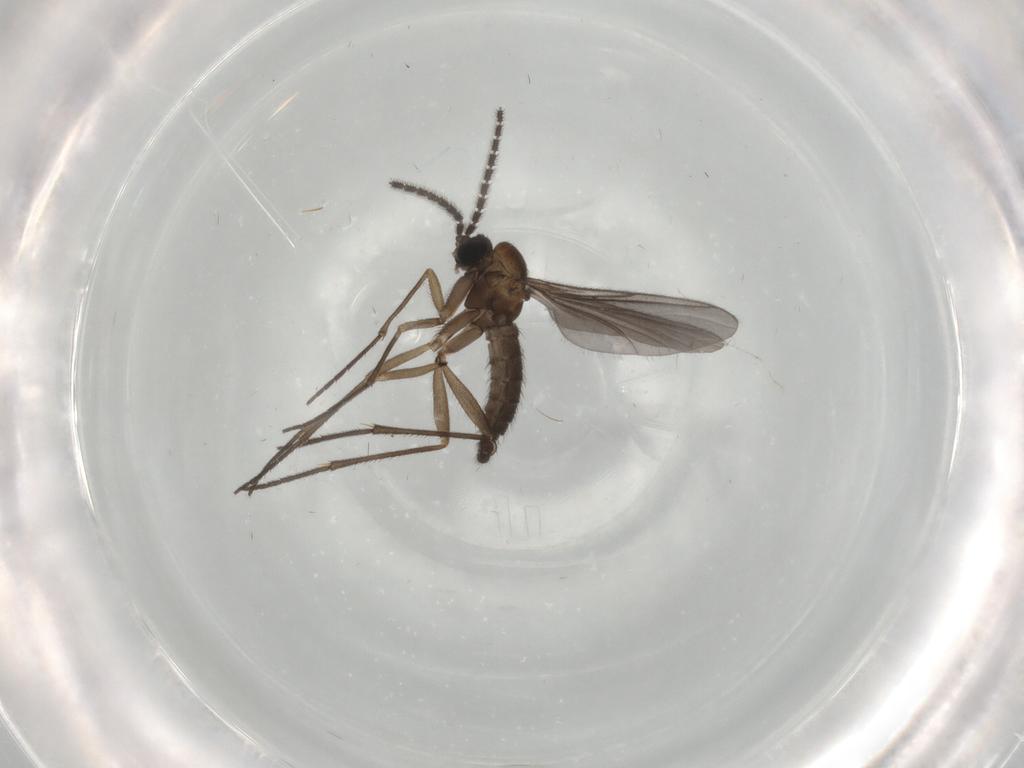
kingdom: Animalia
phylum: Arthropoda
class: Insecta
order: Diptera
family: Sciaridae
